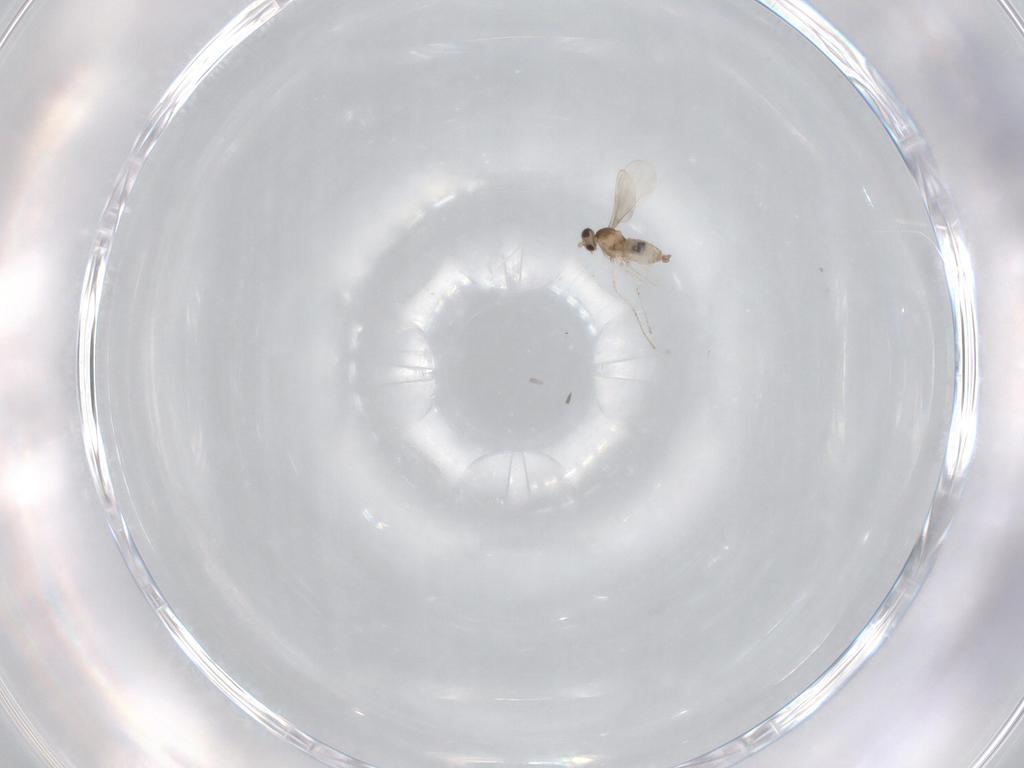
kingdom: Animalia
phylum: Arthropoda
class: Insecta
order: Diptera
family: Cecidomyiidae
